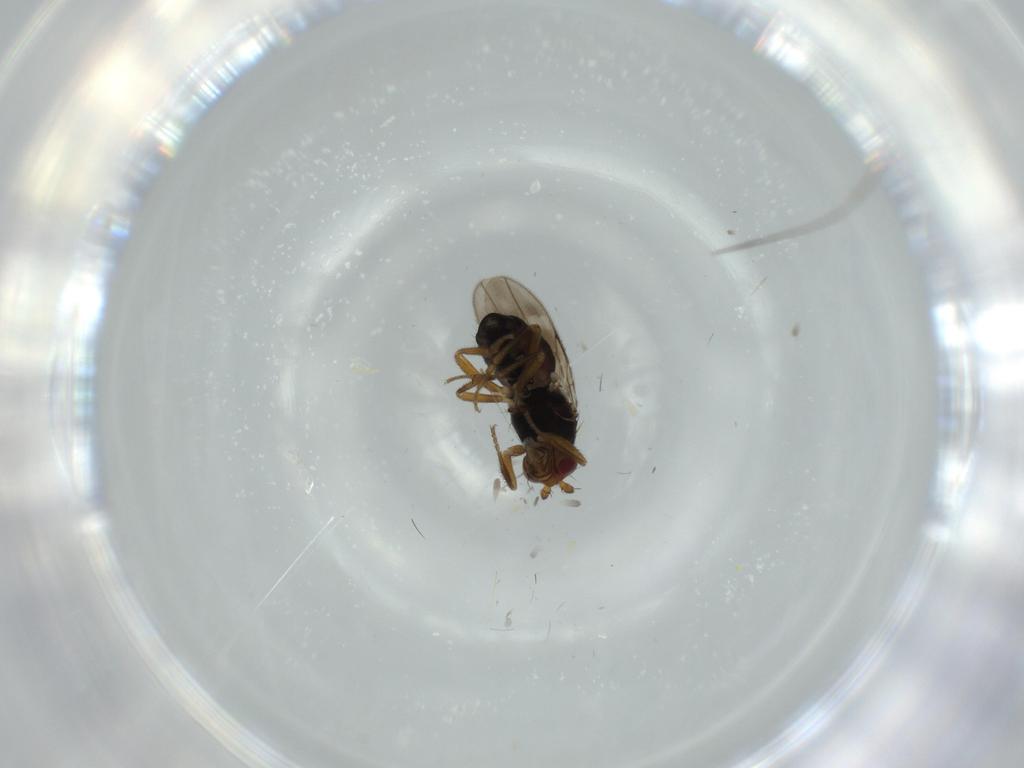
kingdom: Animalia
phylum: Arthropoda
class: Insecta
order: Diptera
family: Sphaeroceridae
